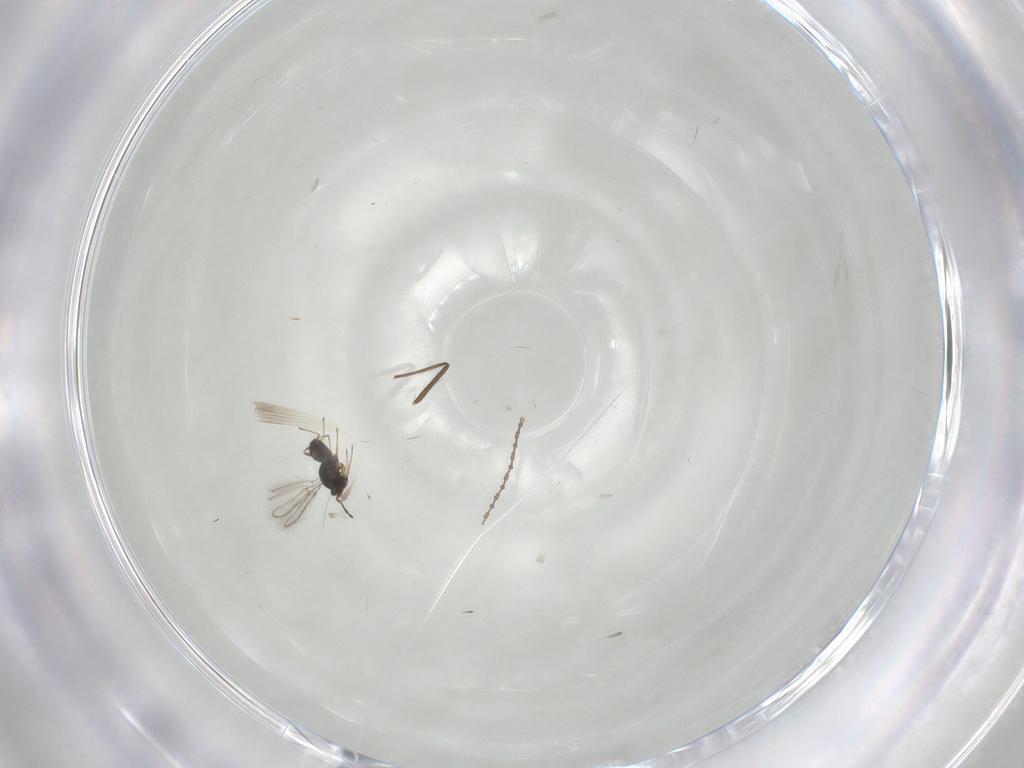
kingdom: Animalia
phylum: Arthropoda
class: Insecta
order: Hymenoptera
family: Mymaridae
